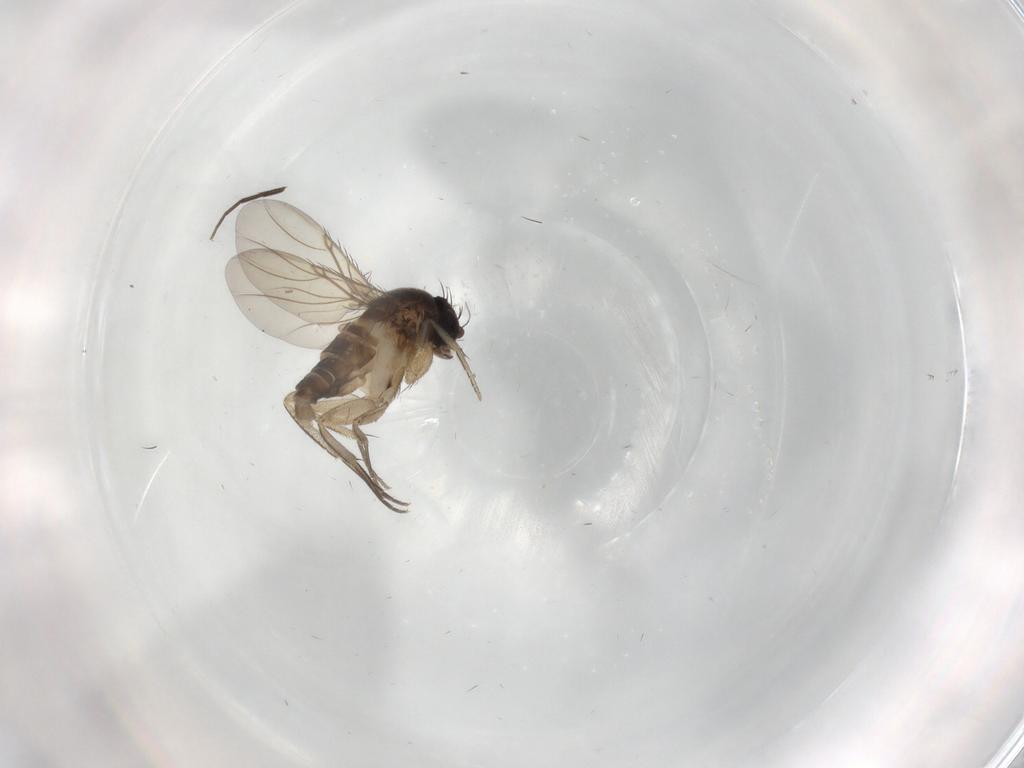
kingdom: Animalia
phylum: Arthropoda
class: Insecta
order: Diptera
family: Phoridae
